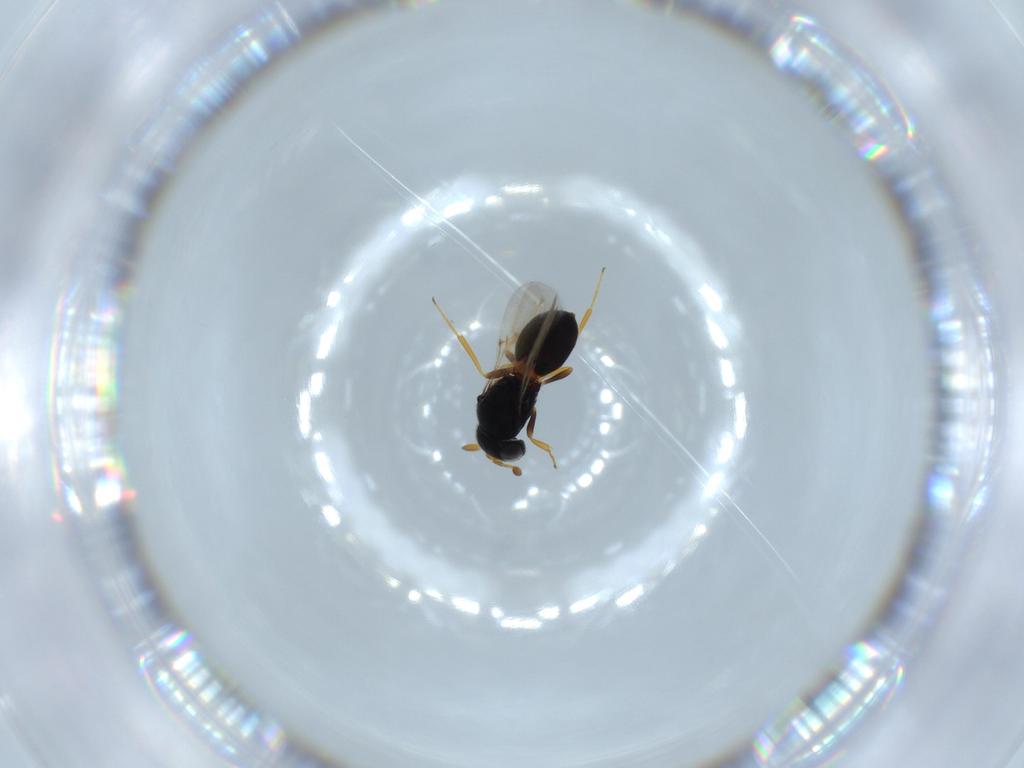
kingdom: Animalia
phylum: Arthropoda
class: Insecta
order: Hymenoptera
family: Scelionidae
